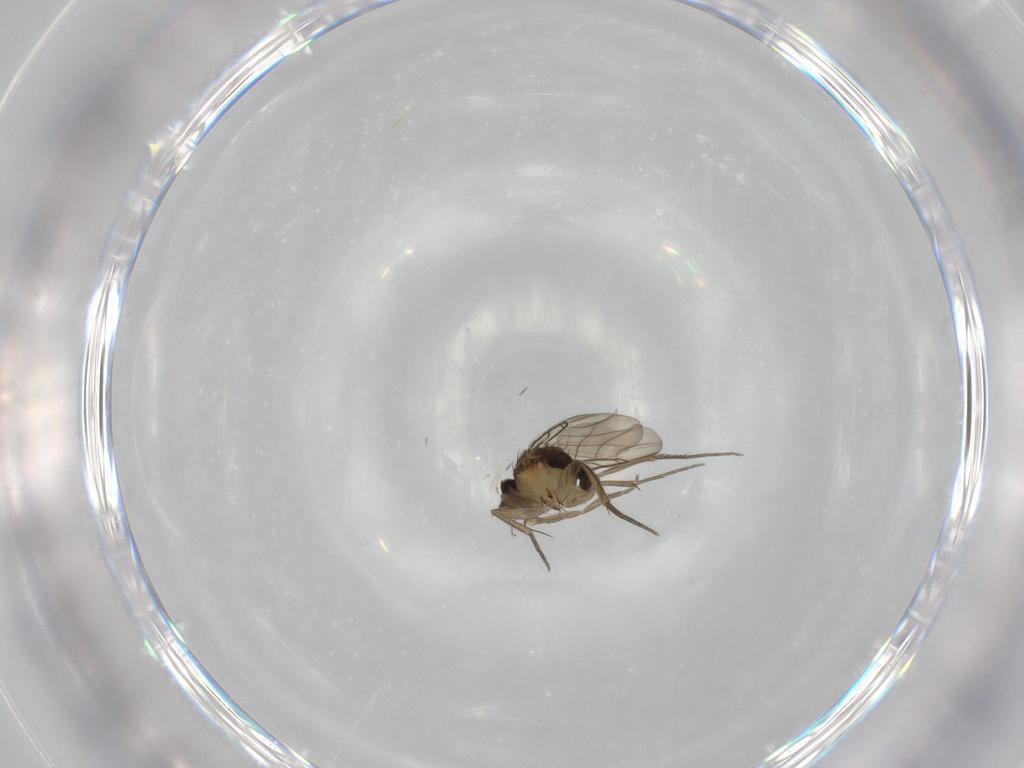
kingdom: Animalia
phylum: Arthropoda
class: Insecta
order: Diptera
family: Phoridae
